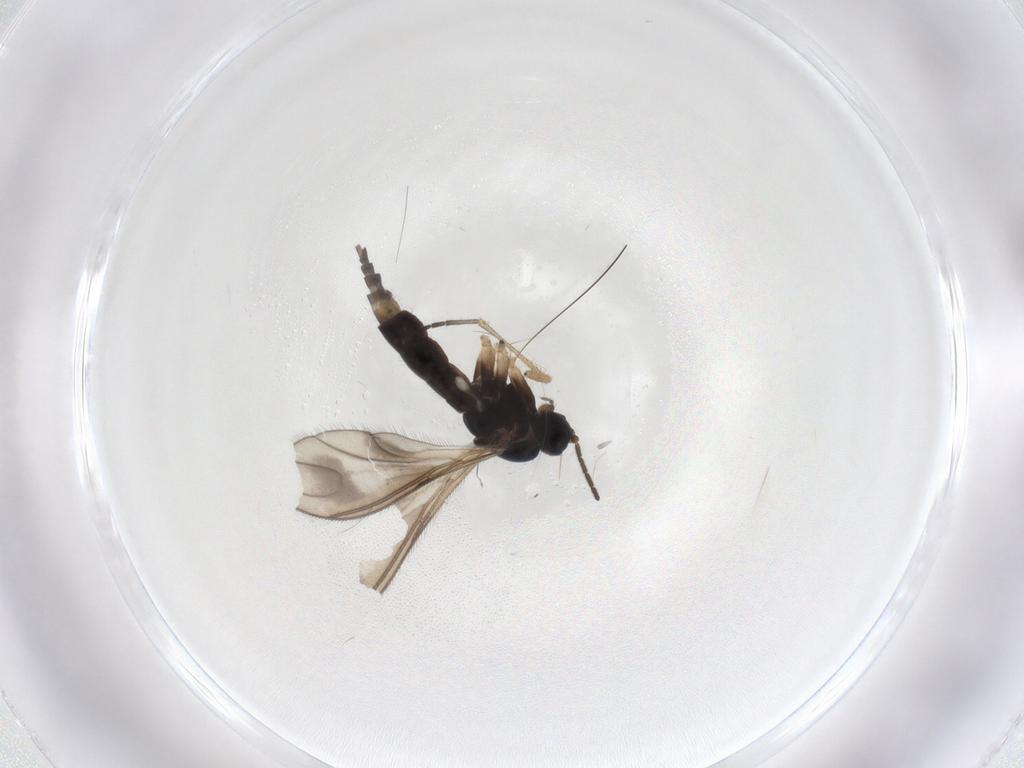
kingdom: Animalia
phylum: Arthropoda
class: Insecta
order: Diptera
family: Sciaridae
